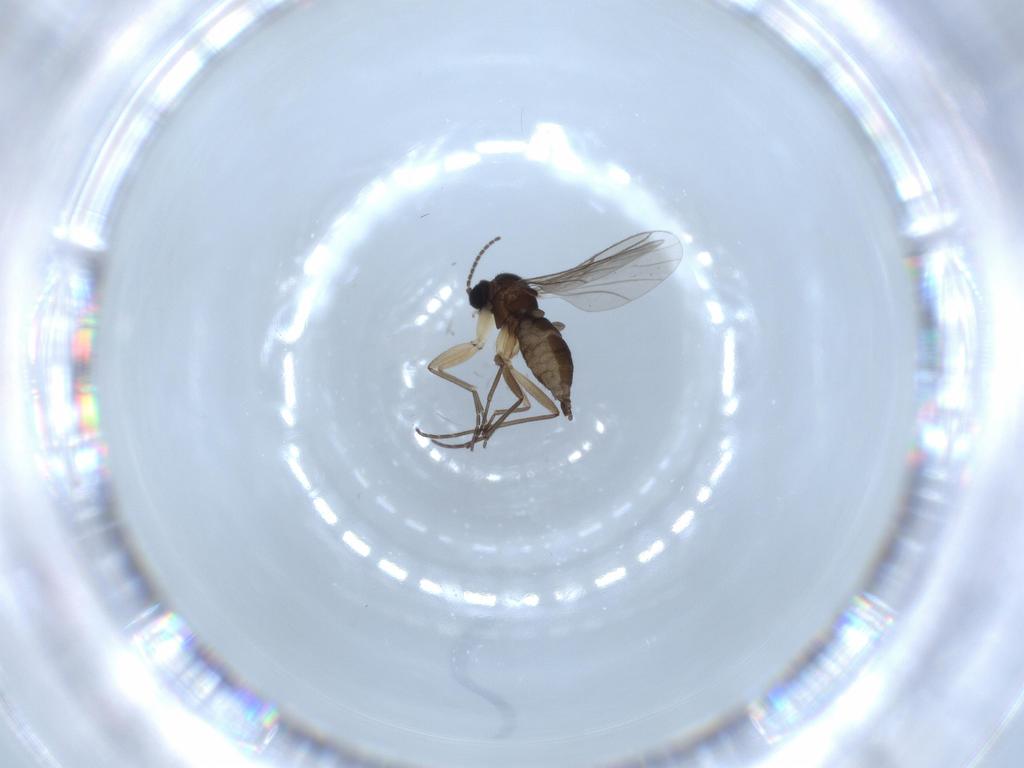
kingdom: Animalia
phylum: Arthropoda
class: Insecta
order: Diptera
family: Sciaridae
